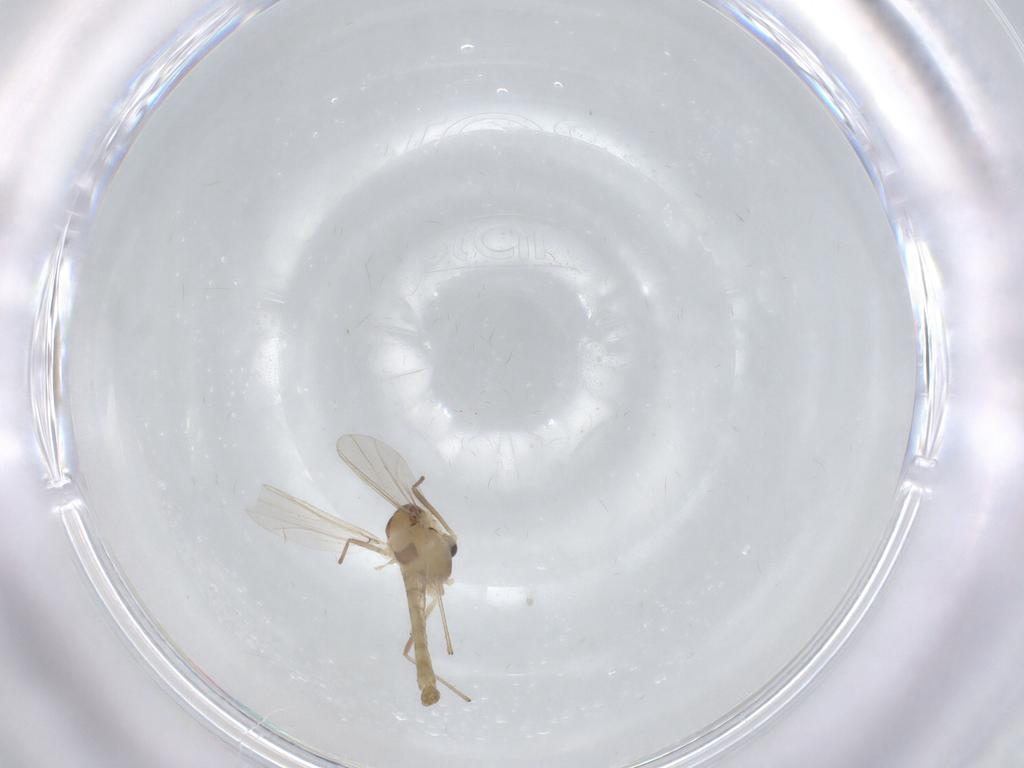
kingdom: Animalia
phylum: Arthropoda
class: Insecta
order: Diptera
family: Chironomidae
